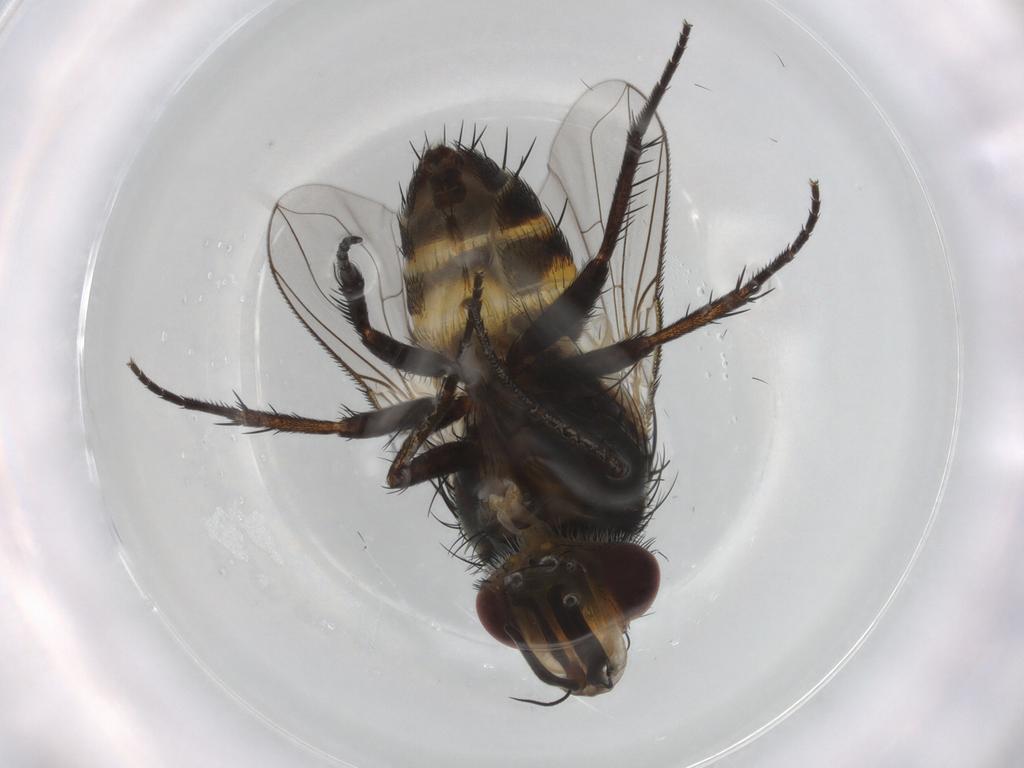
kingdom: Animalia
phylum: Arthropoda
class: Insecta
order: Diptera
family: Tachinidae
